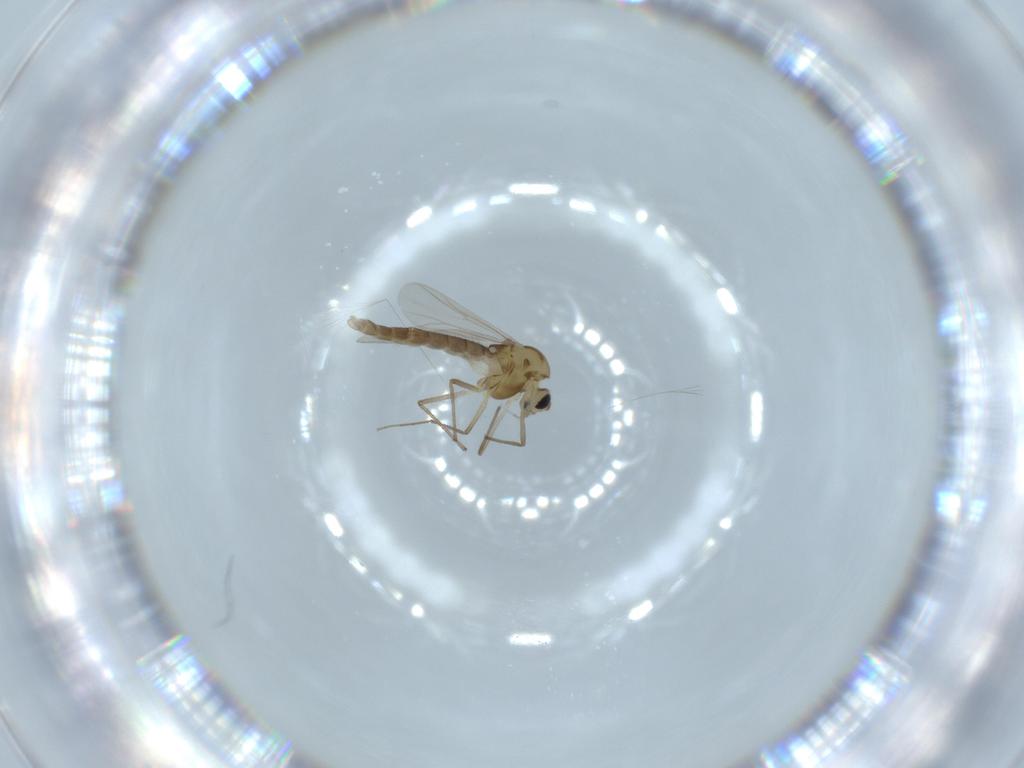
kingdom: Animalia
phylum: Arthropoda
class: Insecta
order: Diptera
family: Chironomidae
